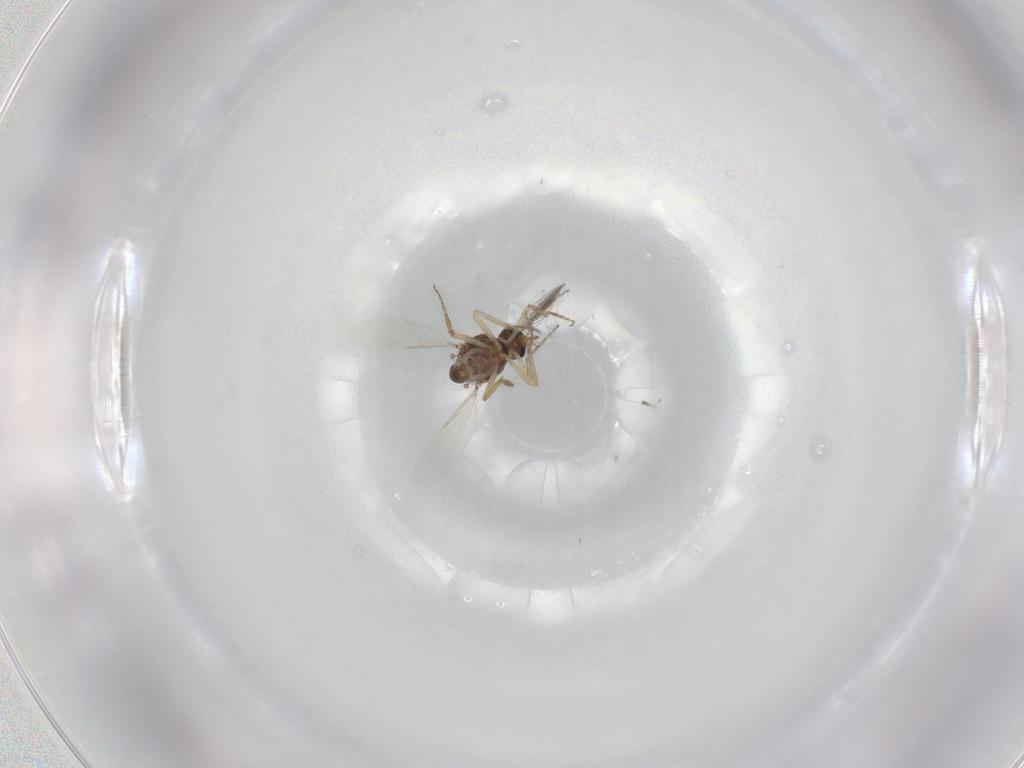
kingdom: Animalia
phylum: Arthropoda
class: Insecta
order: Diptera
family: Ceratopogonidae
